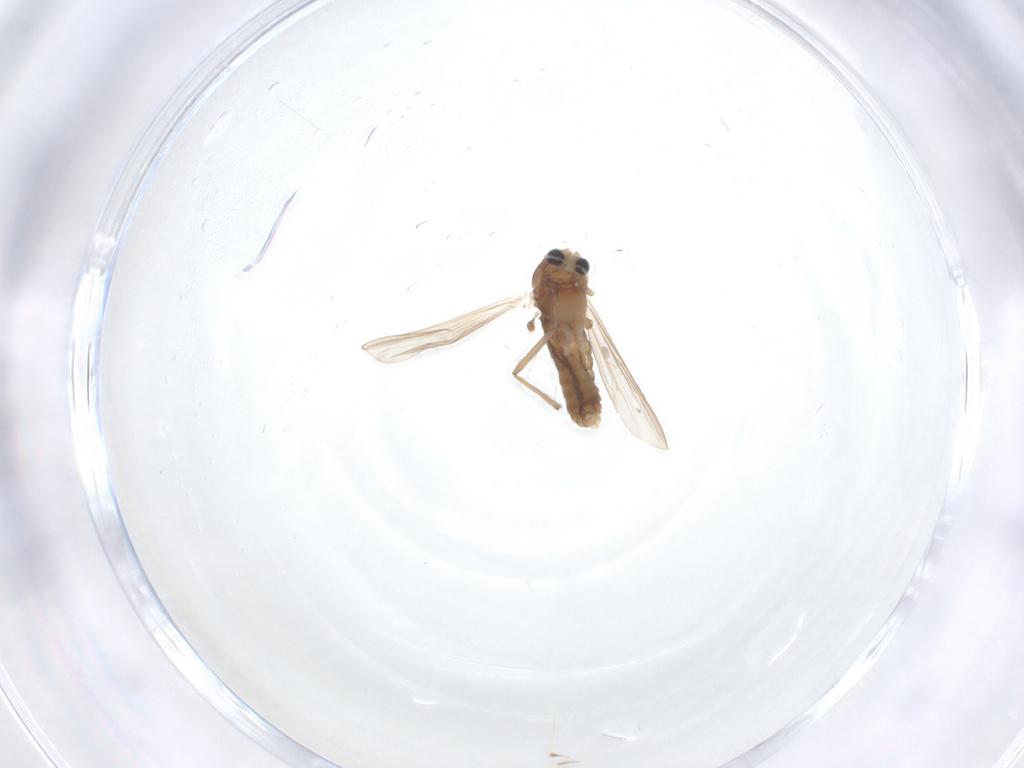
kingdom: Animalia
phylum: Arthropoda
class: Insecta
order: Diptera
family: Chironomidae
